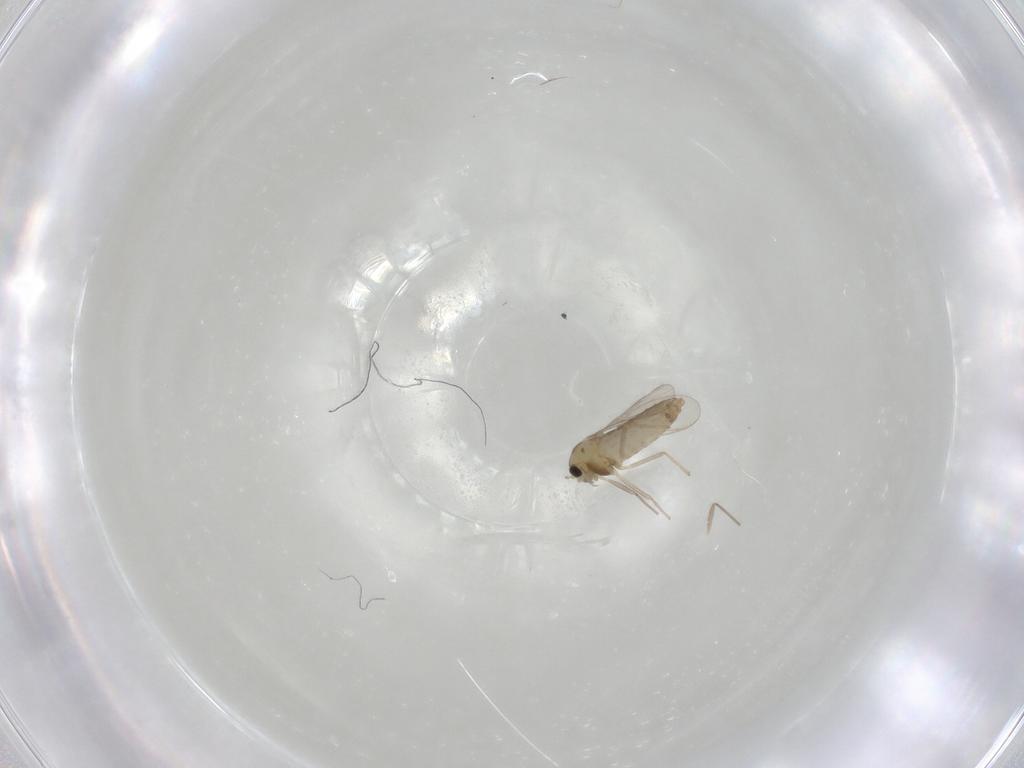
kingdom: Animalia
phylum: Arthropoda
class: Insecta
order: Diptera
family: Chironomidae
